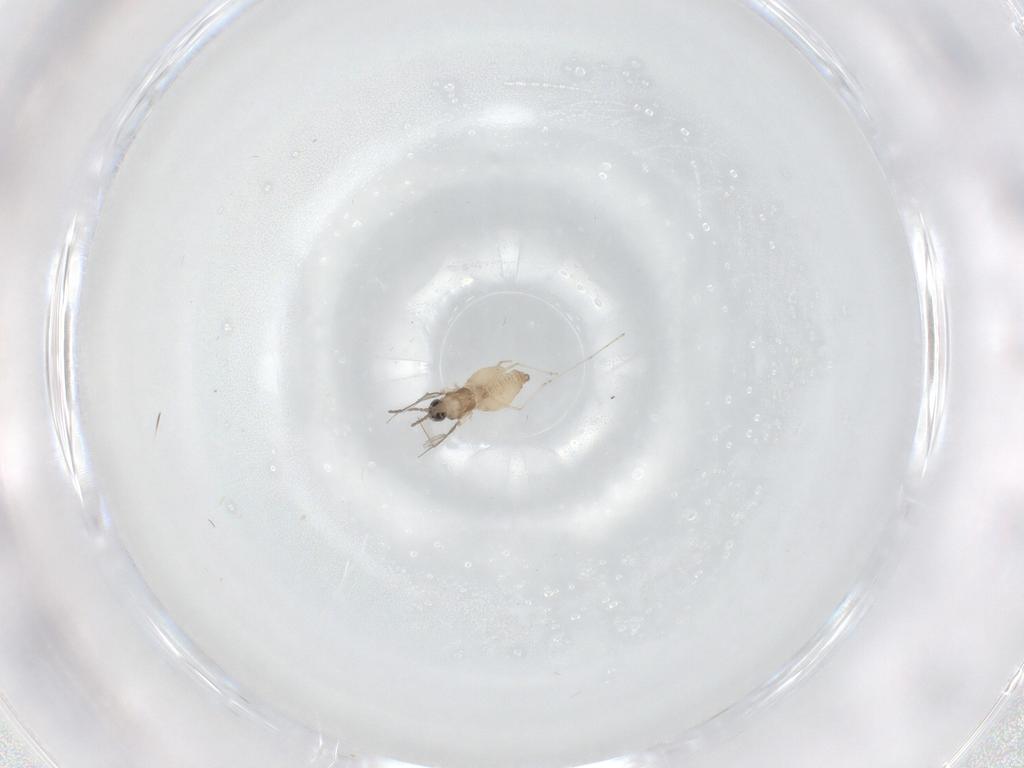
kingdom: Animalia
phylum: Arthropoda
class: Insecta
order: Diptera
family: Cecidomyiidae
